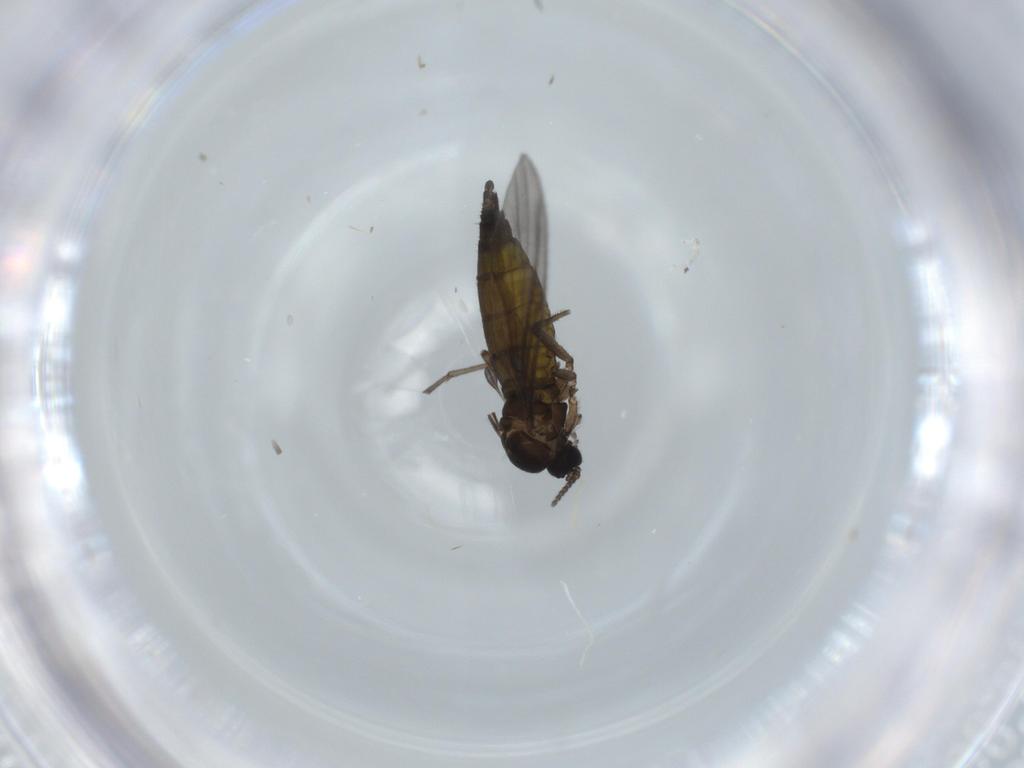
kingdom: Animalia
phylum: Arthropoda
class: Insecta
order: Diptera
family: Sciaridae
